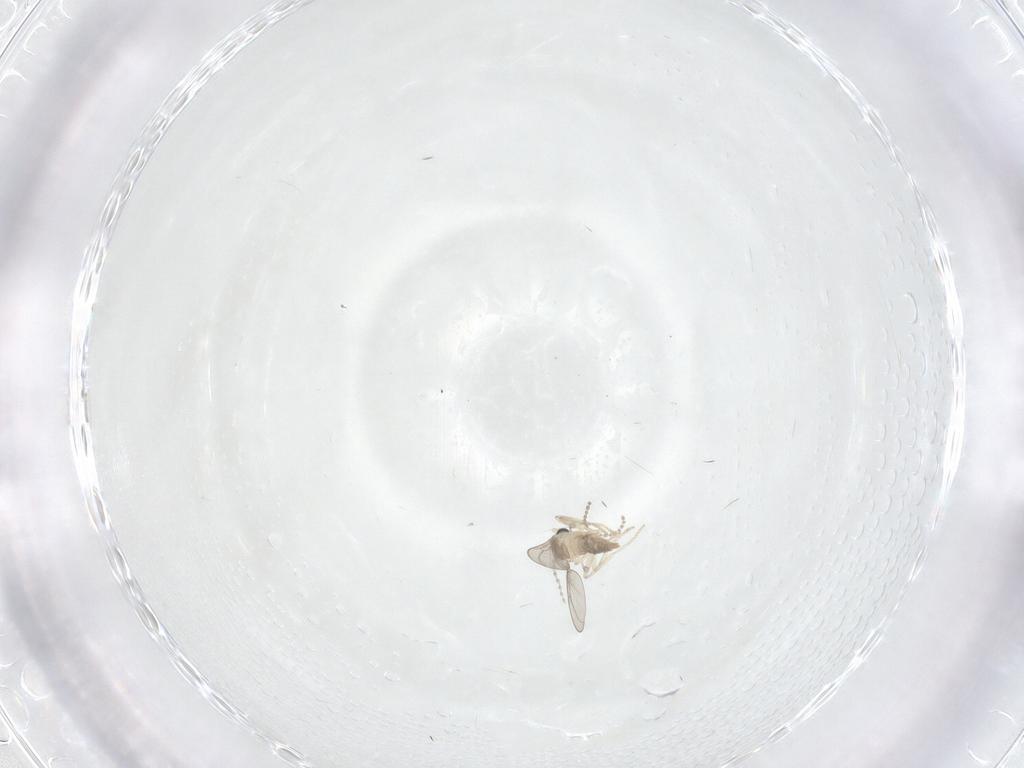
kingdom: Animalia
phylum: Arthropoda
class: Insecta
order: Diptera
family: Cecidomyiidae
